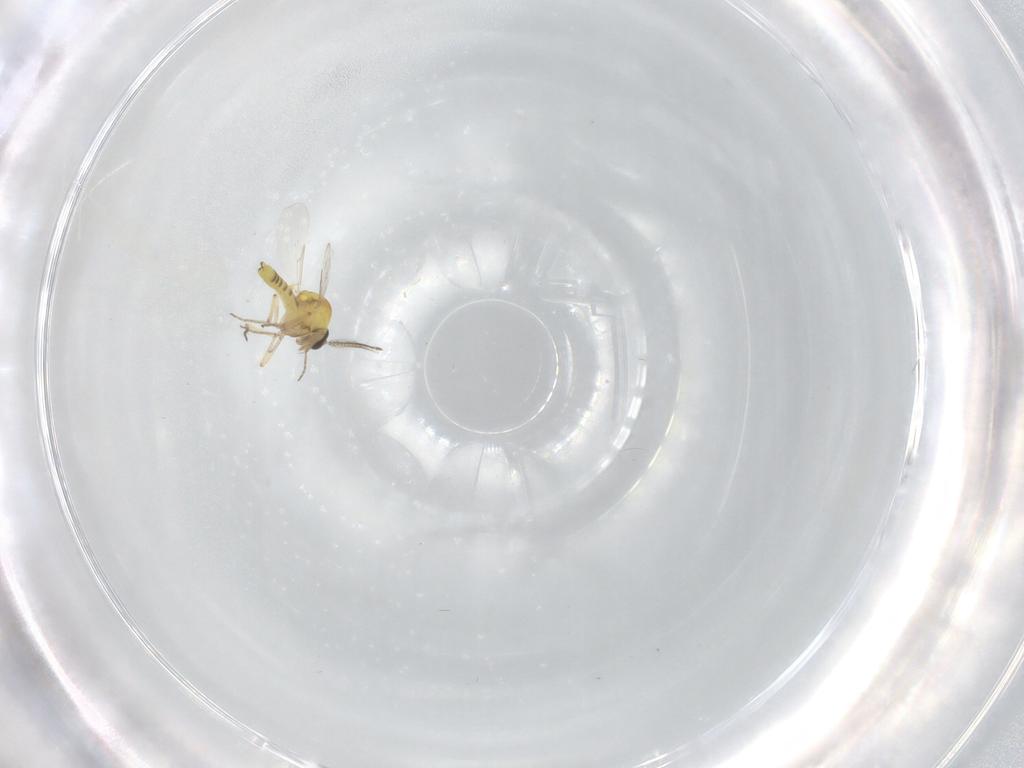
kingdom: Animalia
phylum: Arthropoda
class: Insecta
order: Diptera
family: Ceratopogonidae
